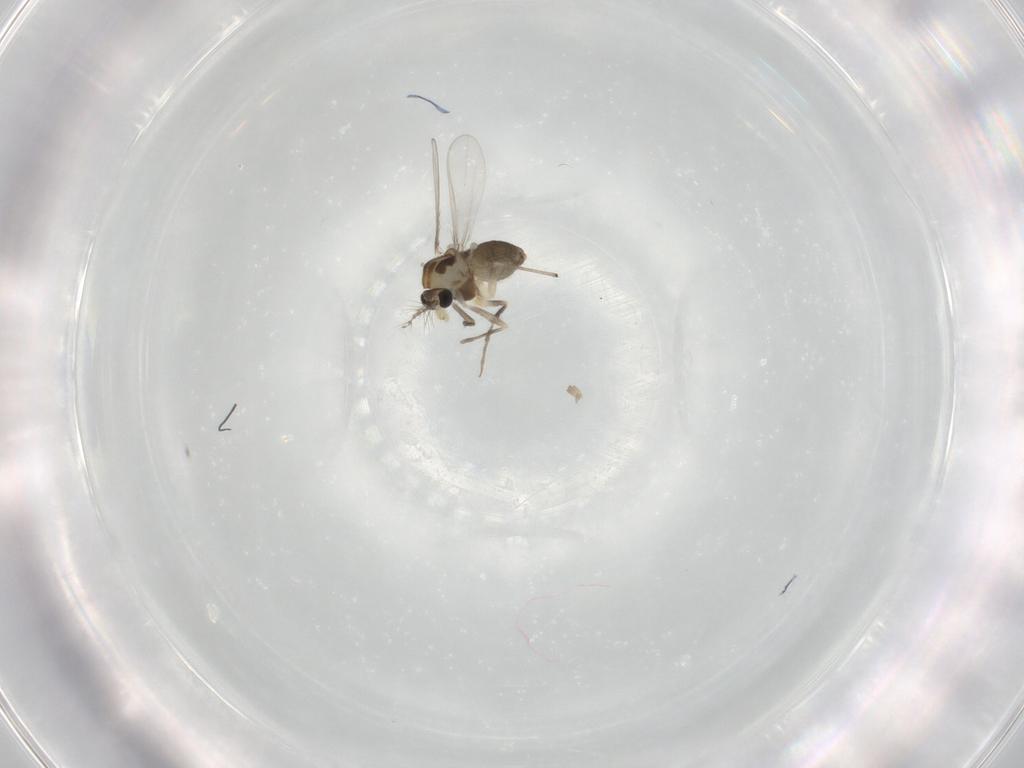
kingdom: Animalia
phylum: Arthropoda
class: Insecta
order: Diptera
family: Chironomidae
